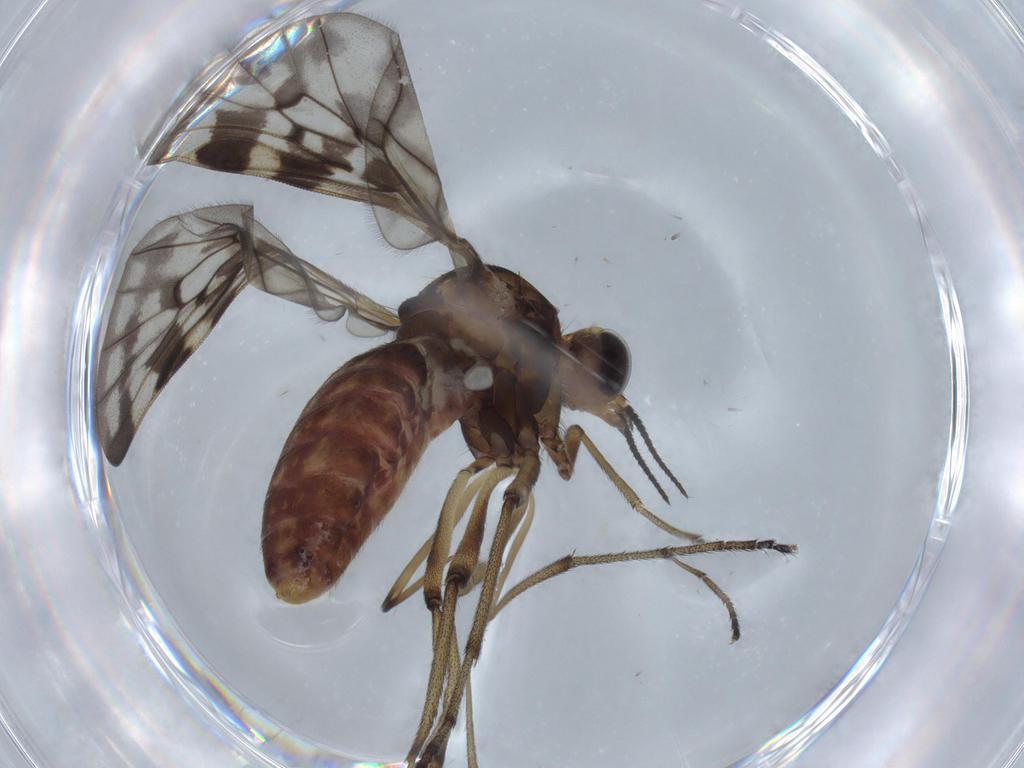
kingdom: Animalia
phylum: Arthropoda
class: Insecta
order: Diptera
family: Anisopodidae
